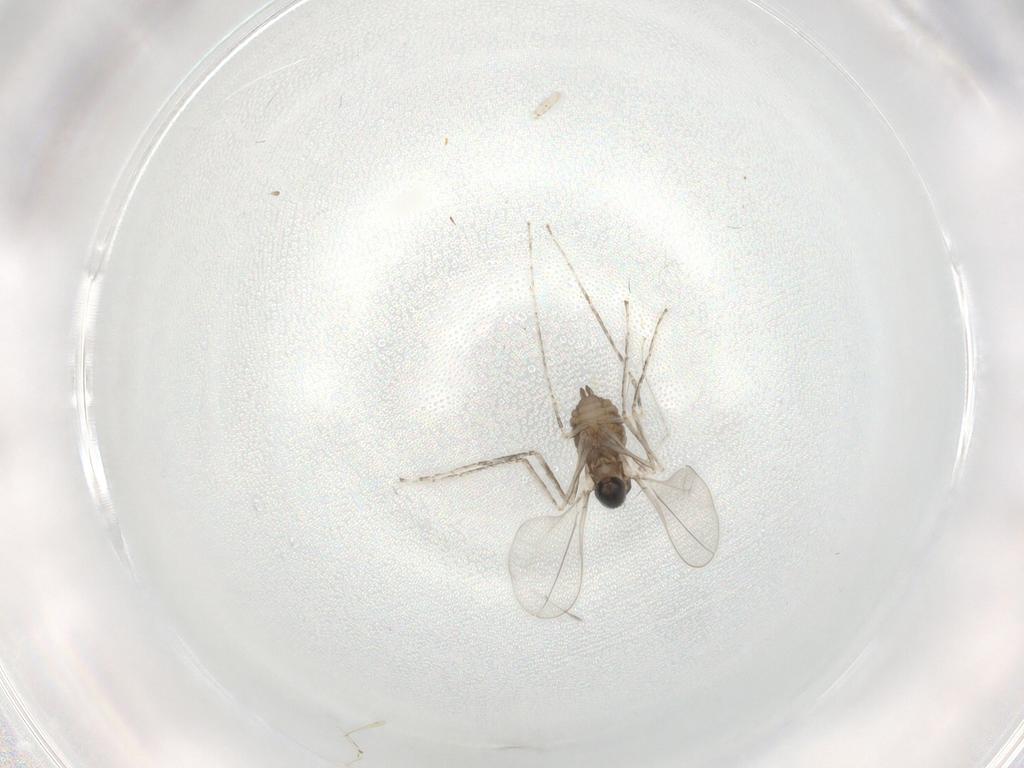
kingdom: Animalia
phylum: Arthropoda
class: Insecta
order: Diptera
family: Cecidomyiidae
